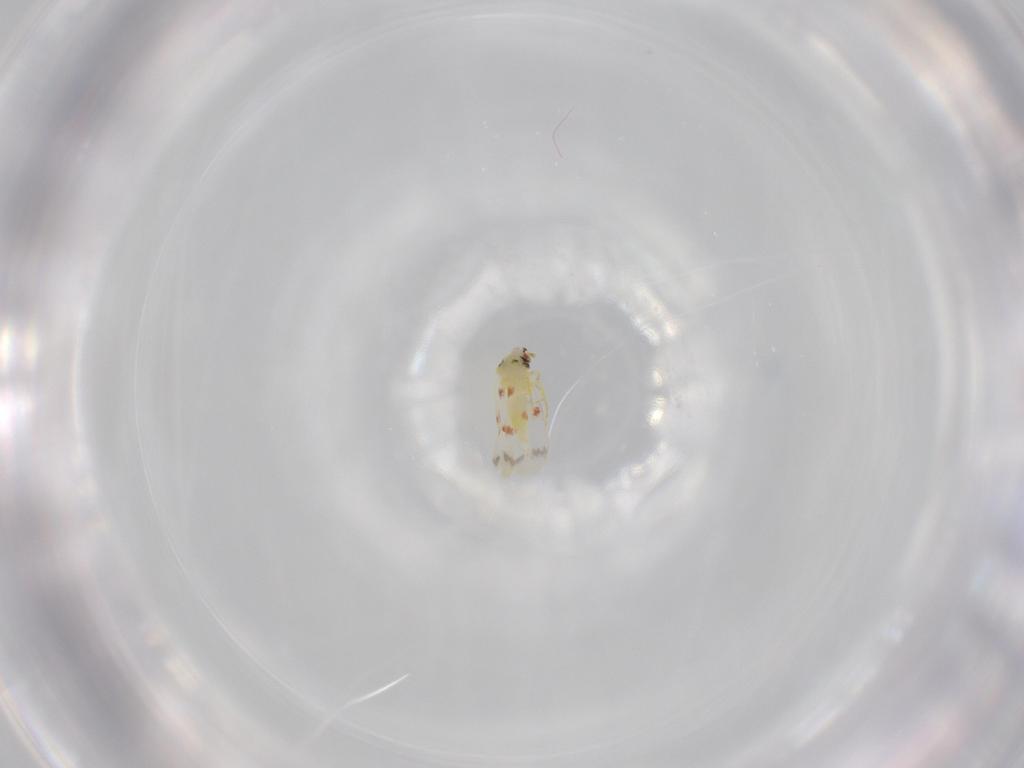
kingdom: Animalia
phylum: Arthropoda
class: Insecta
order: Hemiptera
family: Aleyrodidae
